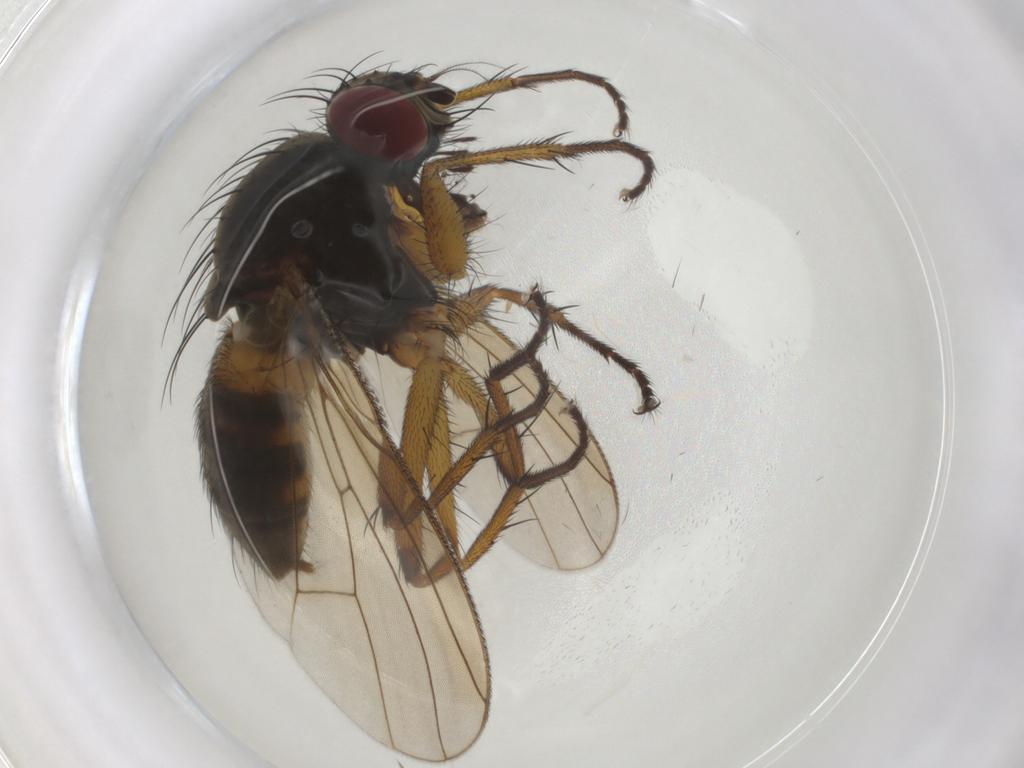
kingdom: Animalia
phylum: Arthropoda
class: Insecta
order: Diptera
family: Muscidae
